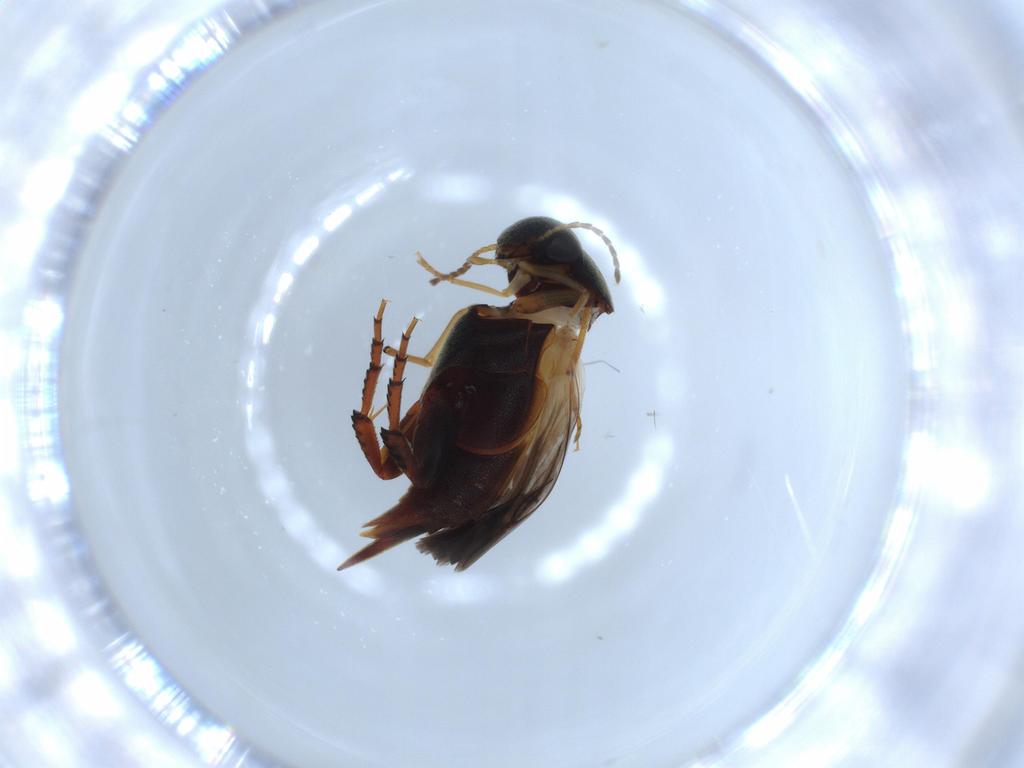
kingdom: Animalia
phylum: Arthropoda
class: Insecta
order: Coleoptera
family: Mordellidae
